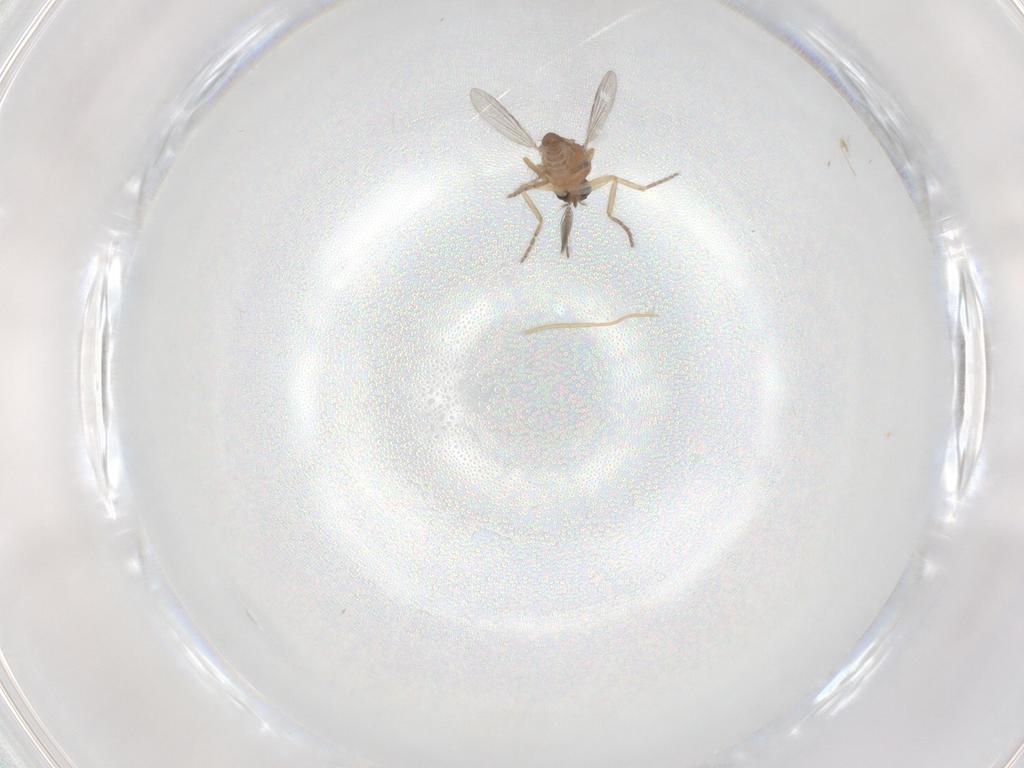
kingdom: Animalia
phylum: Arthropoda
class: Insecta
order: Diptera
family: Ceratopogonidae
